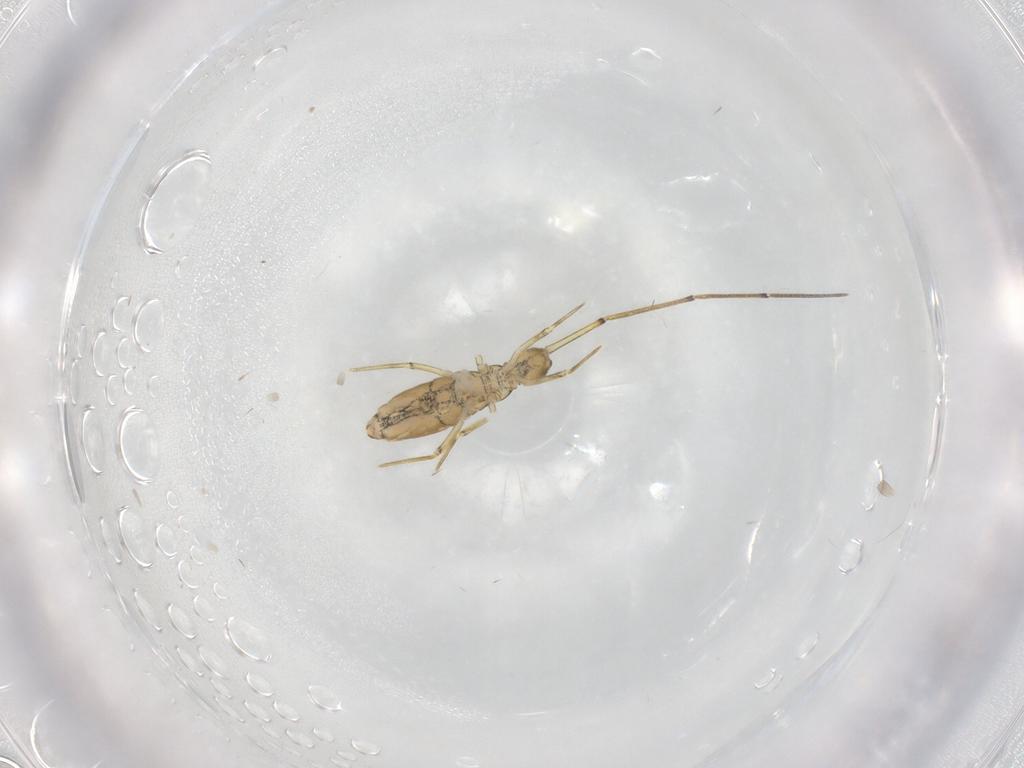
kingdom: Animalia
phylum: Arthropoda
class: Collembola
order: Entomobryomorpha
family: Paronellidae
